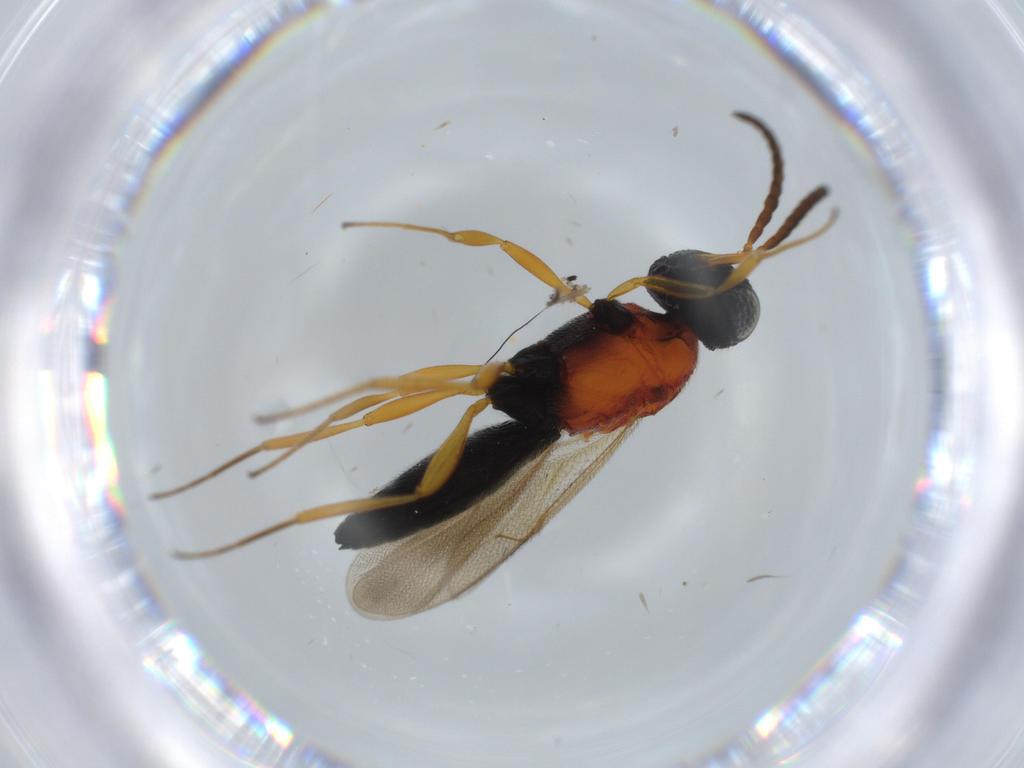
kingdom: Animalia
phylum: Arthropoda
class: Insecta
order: Hymenoptera
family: Scelionidae
